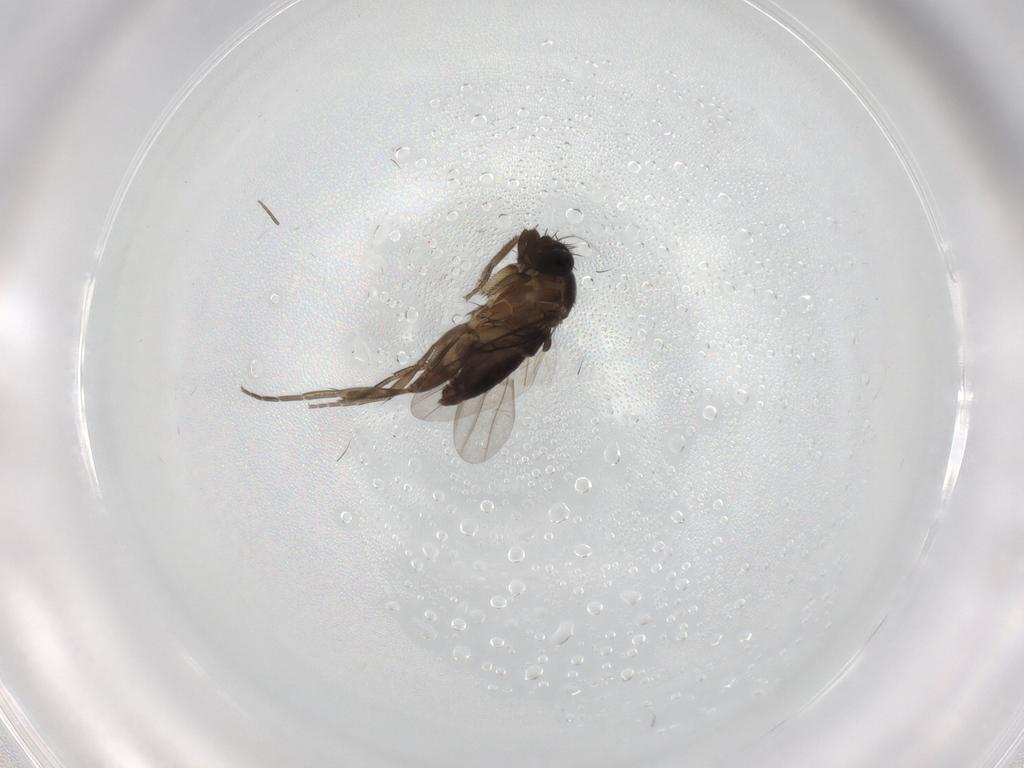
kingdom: Animalia
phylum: Arthropoda
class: Insecta
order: Diptera
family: Phoridae
